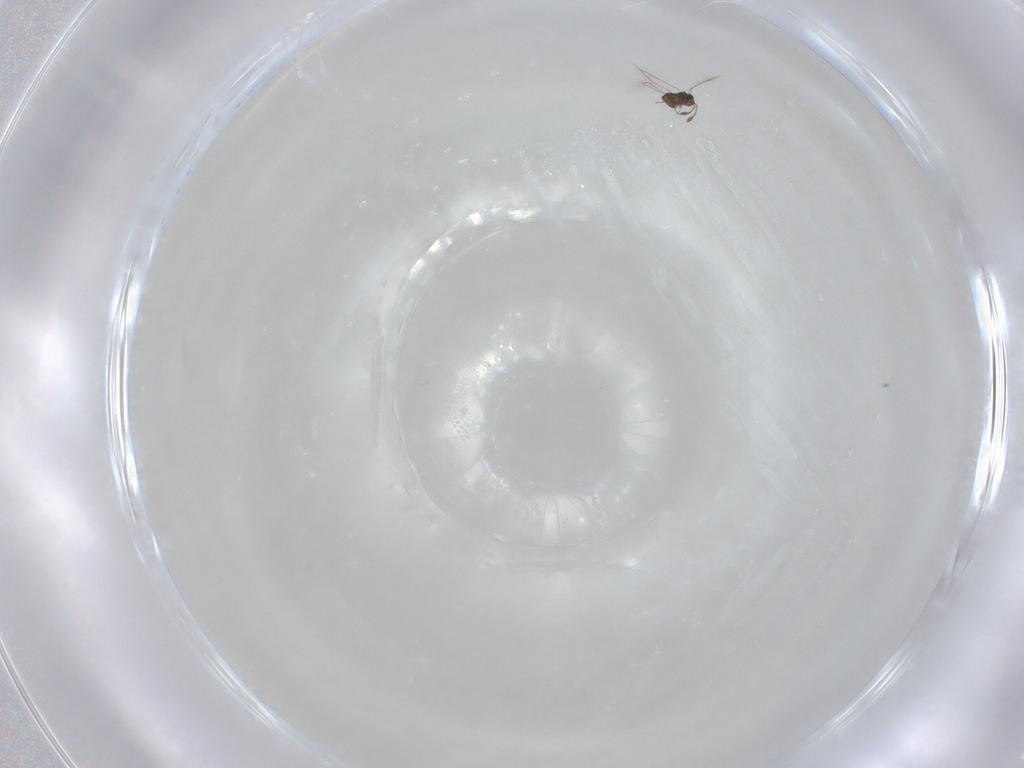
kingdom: Animalia
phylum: Arthropoda
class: Insecta
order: Hymenoptera
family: Mymaridae
